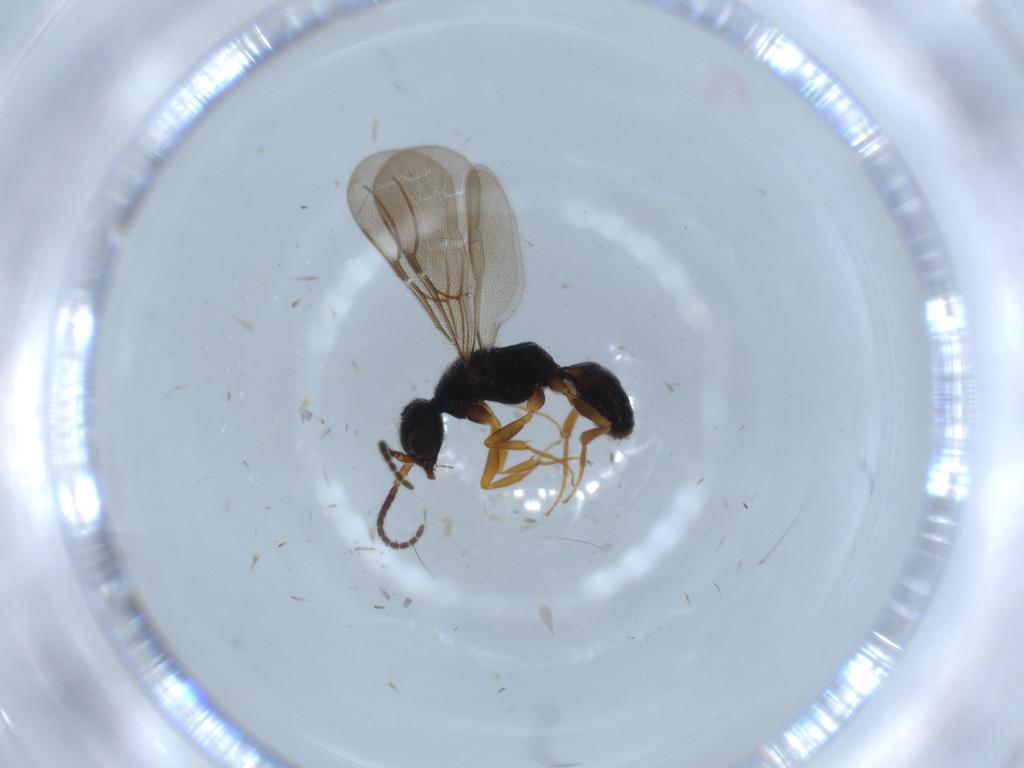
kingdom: Animalia
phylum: Arthropoda
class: Insecta
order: Hymenoptera
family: Bethylidae
